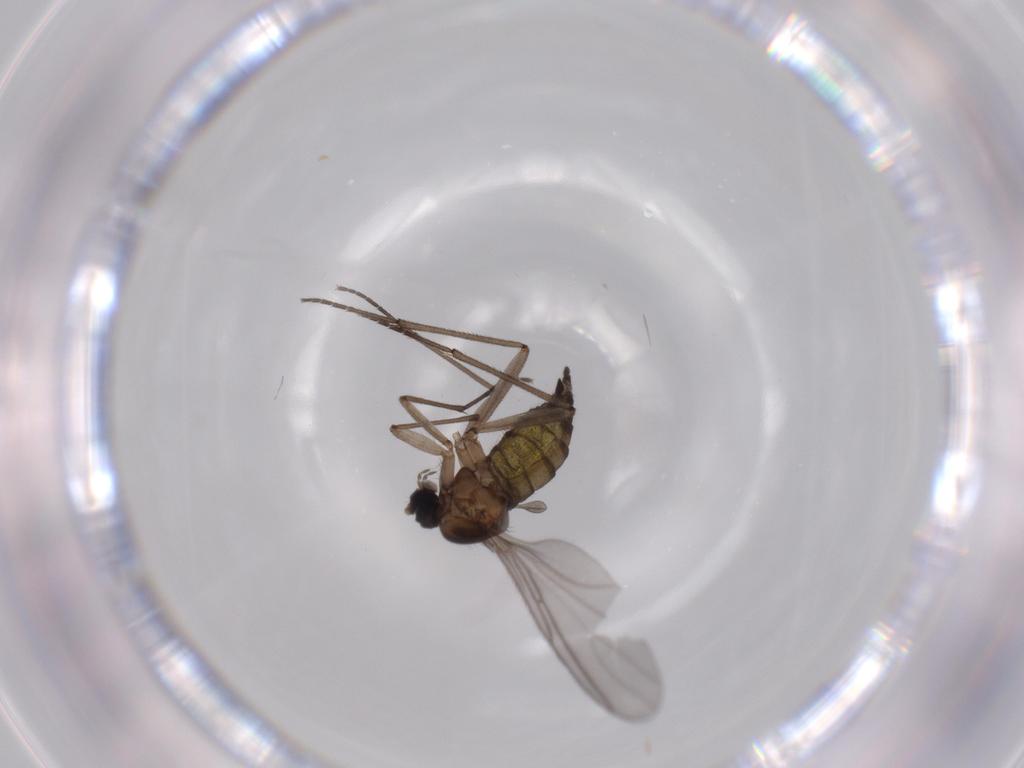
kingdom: Animalia
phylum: Arthropoda
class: Insecta
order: Diptera
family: Sciaridae
